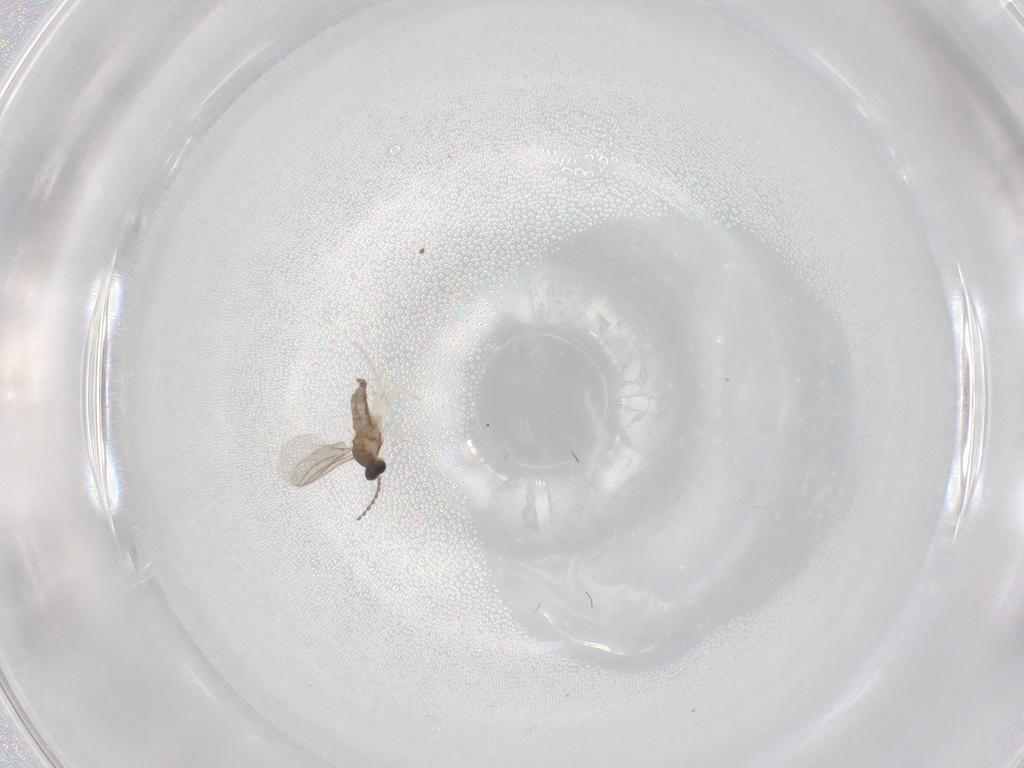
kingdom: Animalia
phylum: Arthropoda
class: Insecta
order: Diptera
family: Cecidomyiidae
